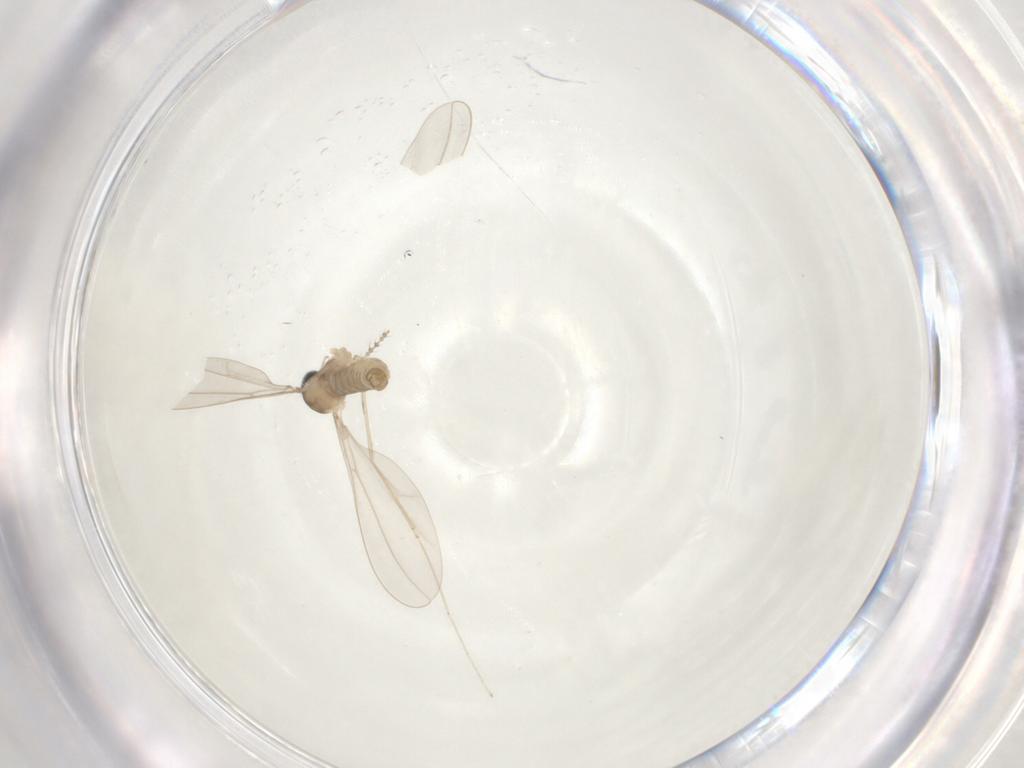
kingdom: Animalia
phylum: Arthropoda
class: Insecta
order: Diptera
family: Cecidomyiidae
